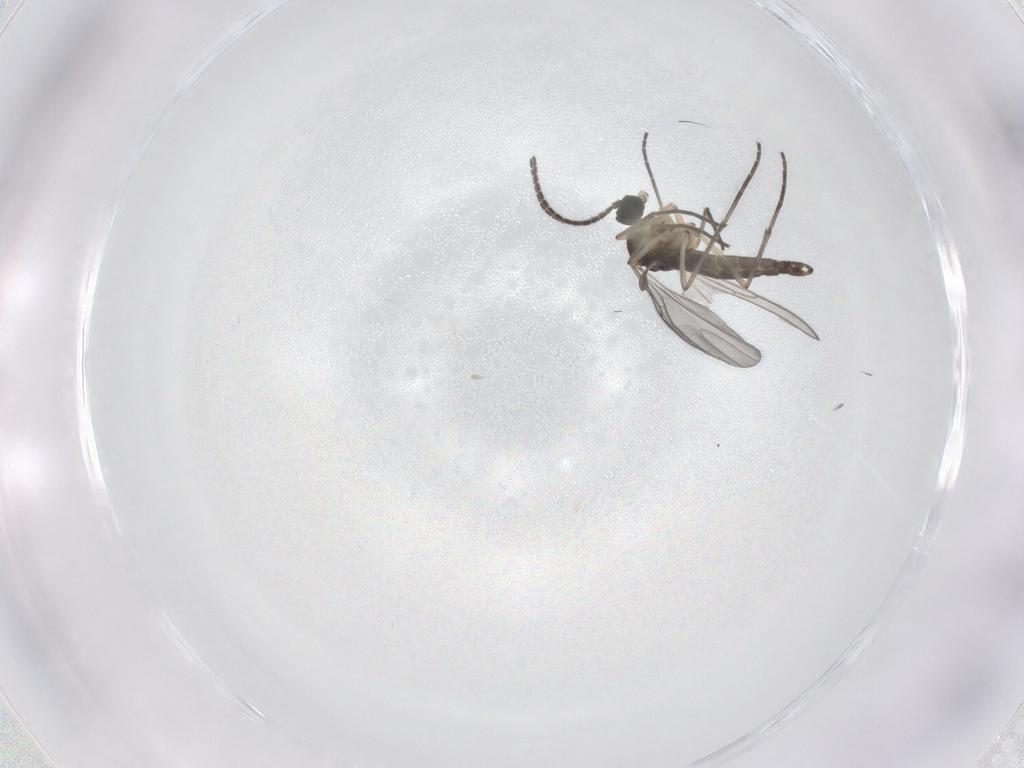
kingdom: Animalia
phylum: Arthropoda
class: Insecta
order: Diptera
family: Sciaridae
